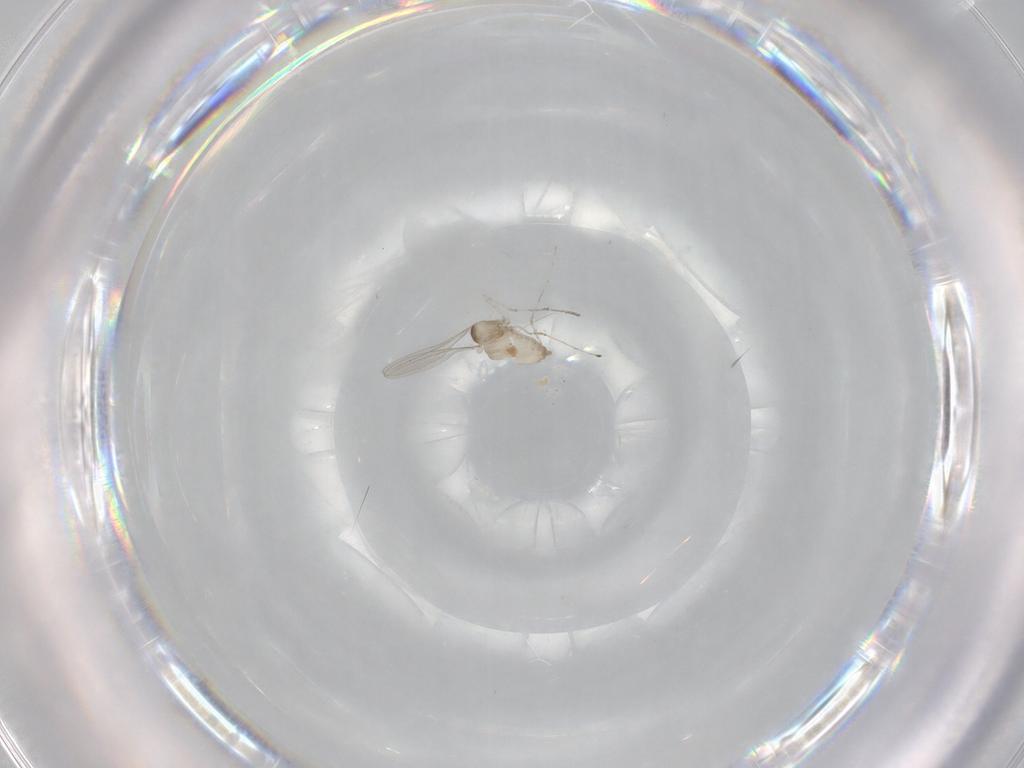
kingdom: Animalia
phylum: Arthropoda
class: Insecta
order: Diptera
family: Cecidomyiidae
